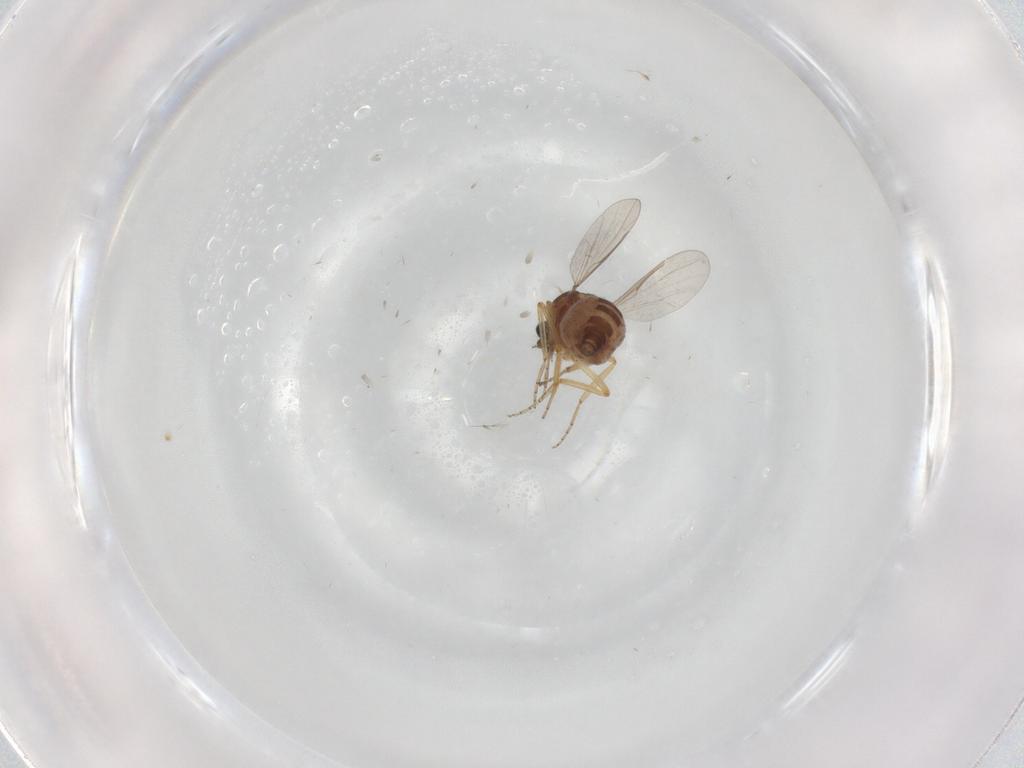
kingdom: Animalia
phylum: Arthropoda
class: Insecta
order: Diptera
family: Ceratopogonidae
